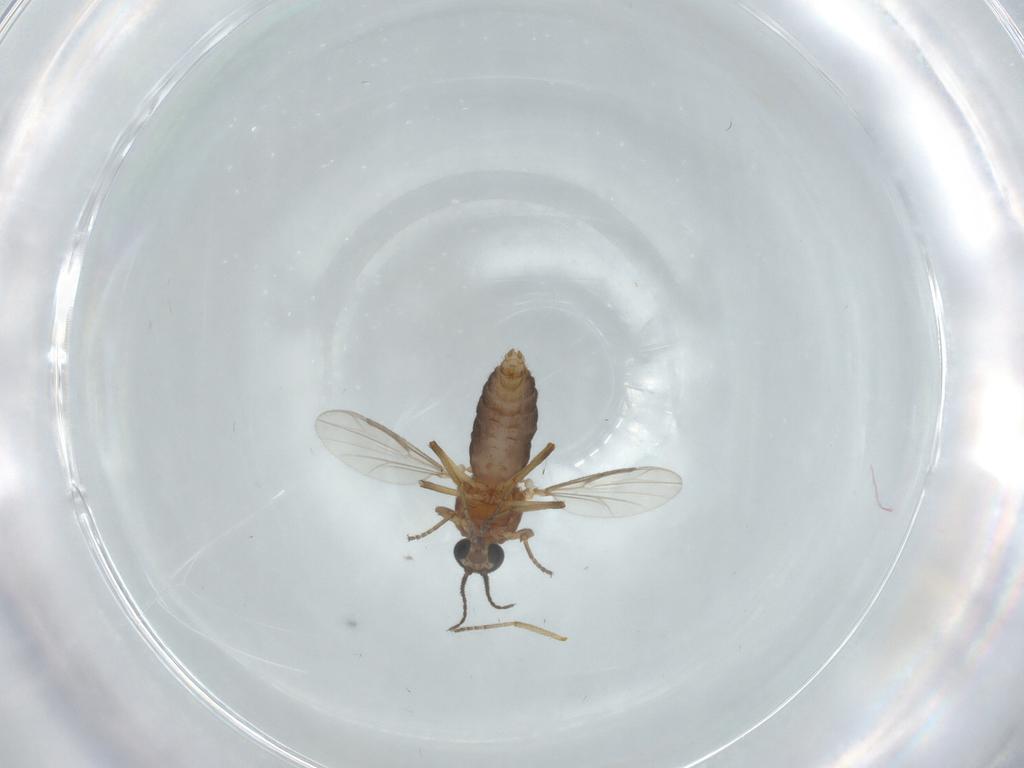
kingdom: Animalia
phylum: Arthropoda
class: Insecta
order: Diptera
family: Ceratopogonidae
